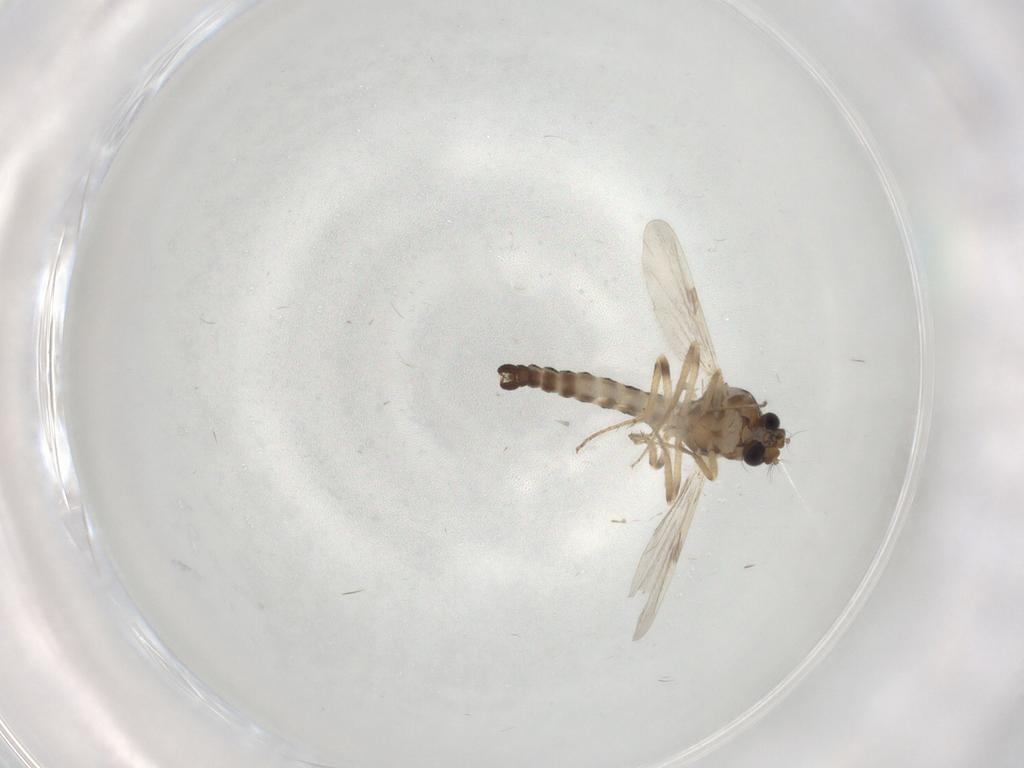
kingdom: Animalia
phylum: Arthropoda
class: Insecta
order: Diptera
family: Ceratopogonidae
